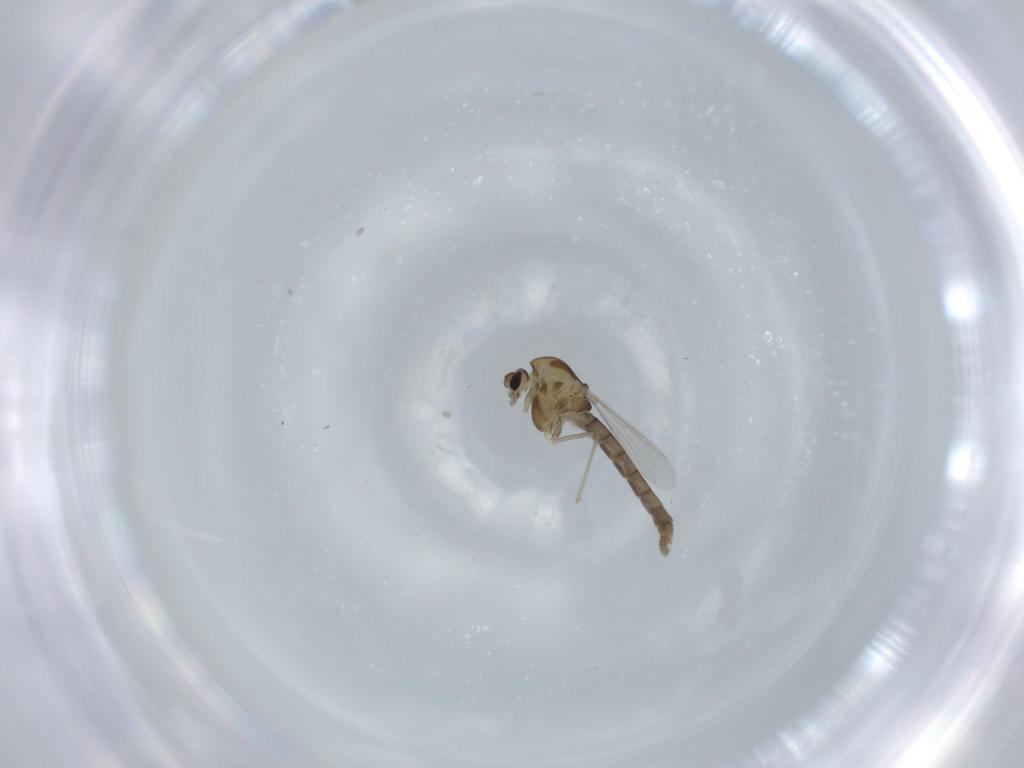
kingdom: Animalia
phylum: Arthropoda
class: Insecta
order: Diptera
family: Chironomidae
